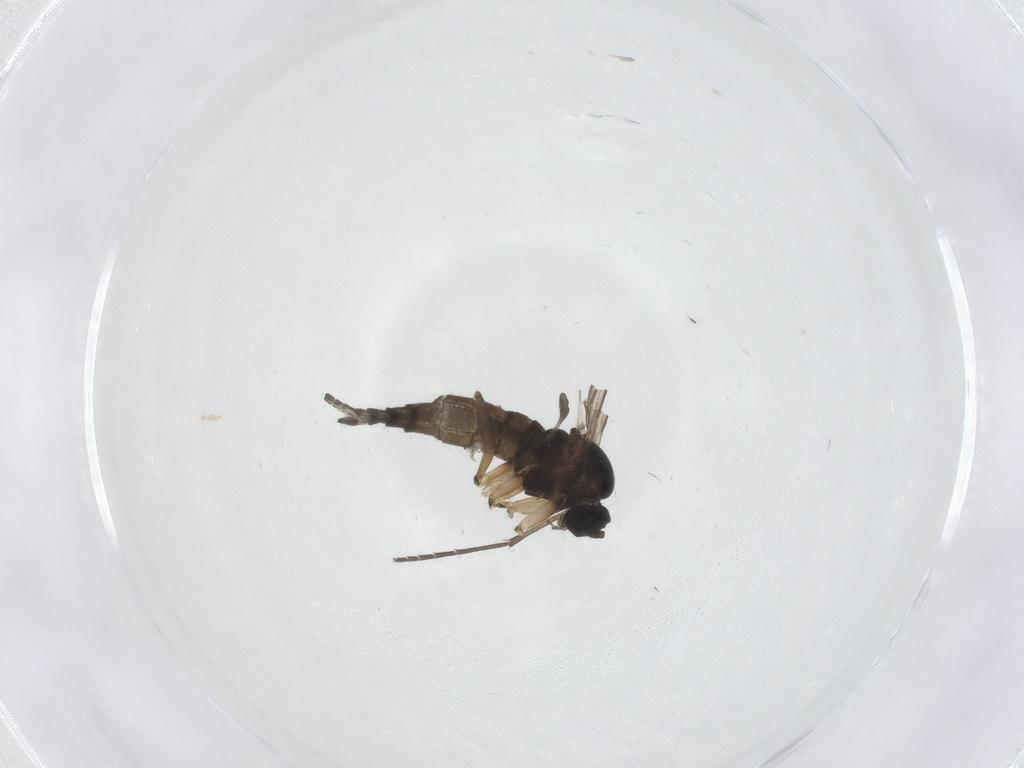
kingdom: Animalia
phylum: Arthropoda
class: Insecta
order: Diptera
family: Sciaridae
